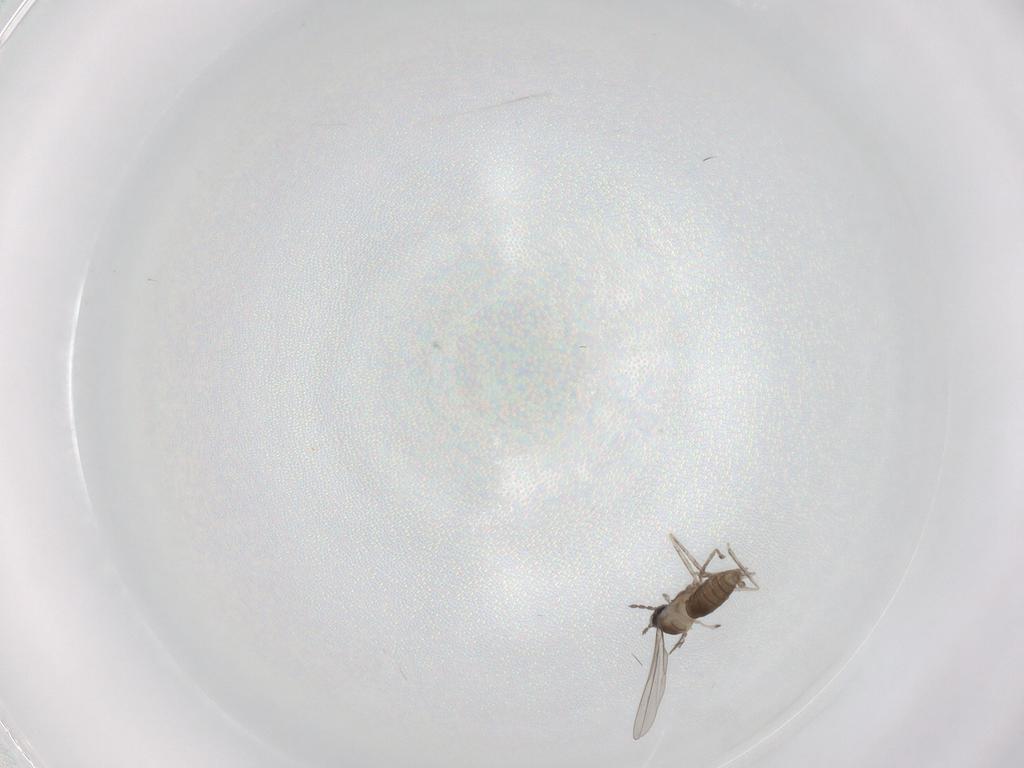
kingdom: Animalia
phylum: Arthropoda
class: Insecta
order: Diptera
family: Cecidomyiidae
